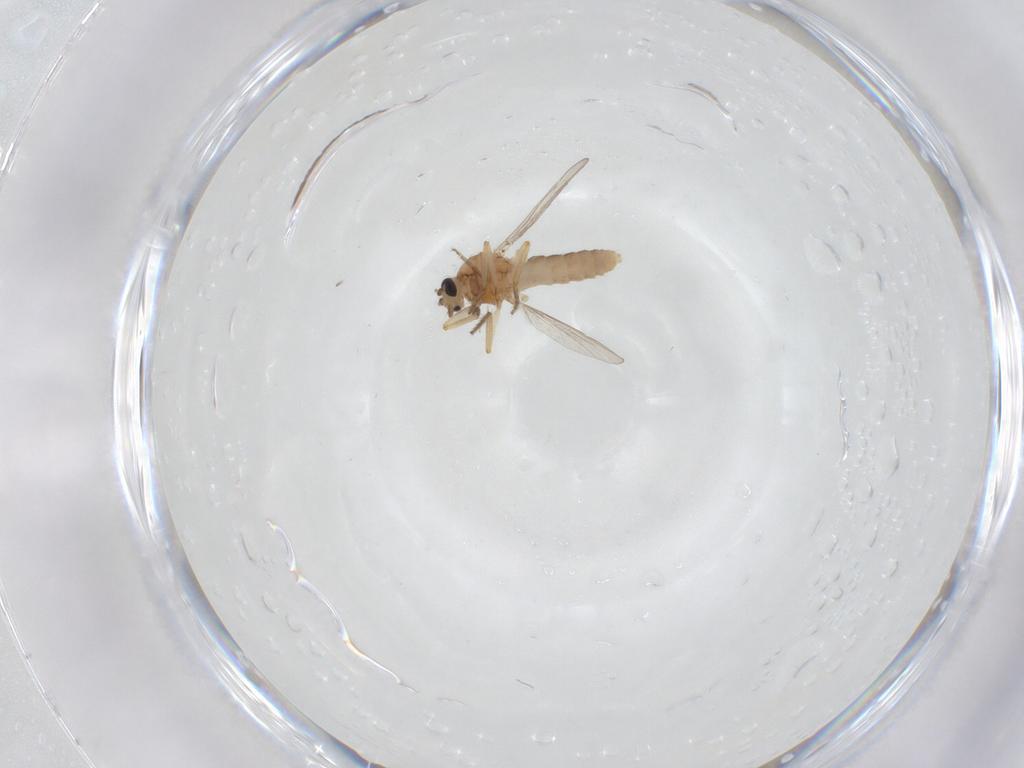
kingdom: Animalia
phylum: Arthropoda
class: Insecta
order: Diptera
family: Ceratopogonidae
